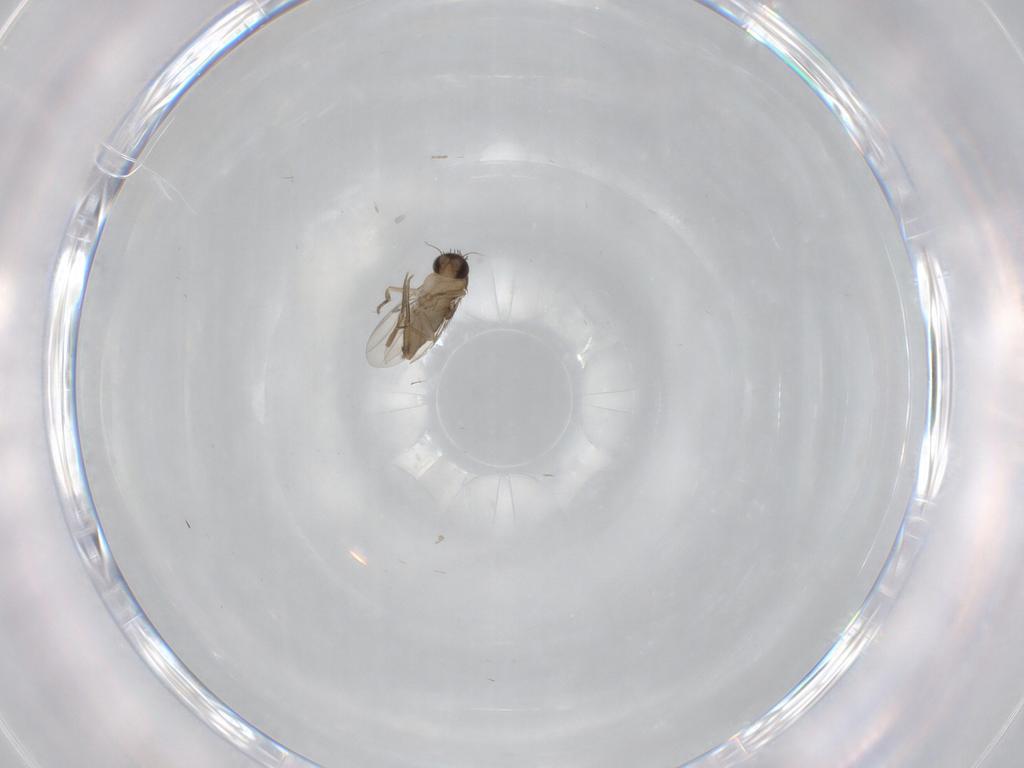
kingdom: Animalia
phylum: Arthropoda
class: Insecta
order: Diptera
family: Phoridae
